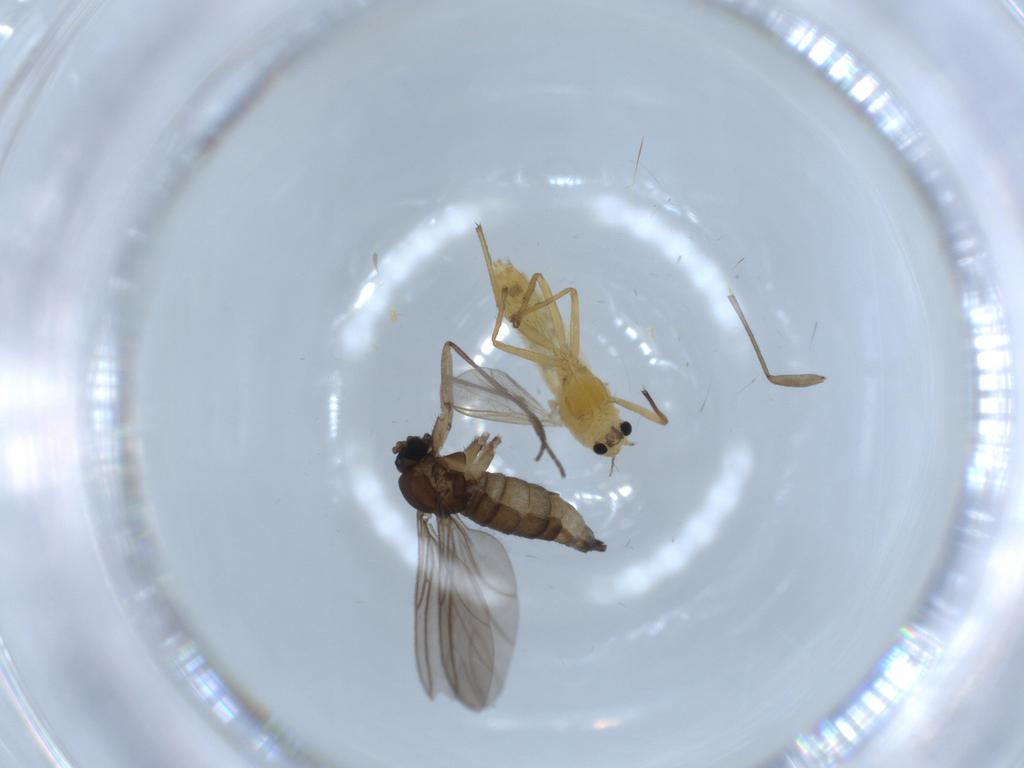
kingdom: Animalia
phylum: Arthropoda
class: Insecta
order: Diptera
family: Sciaridae
